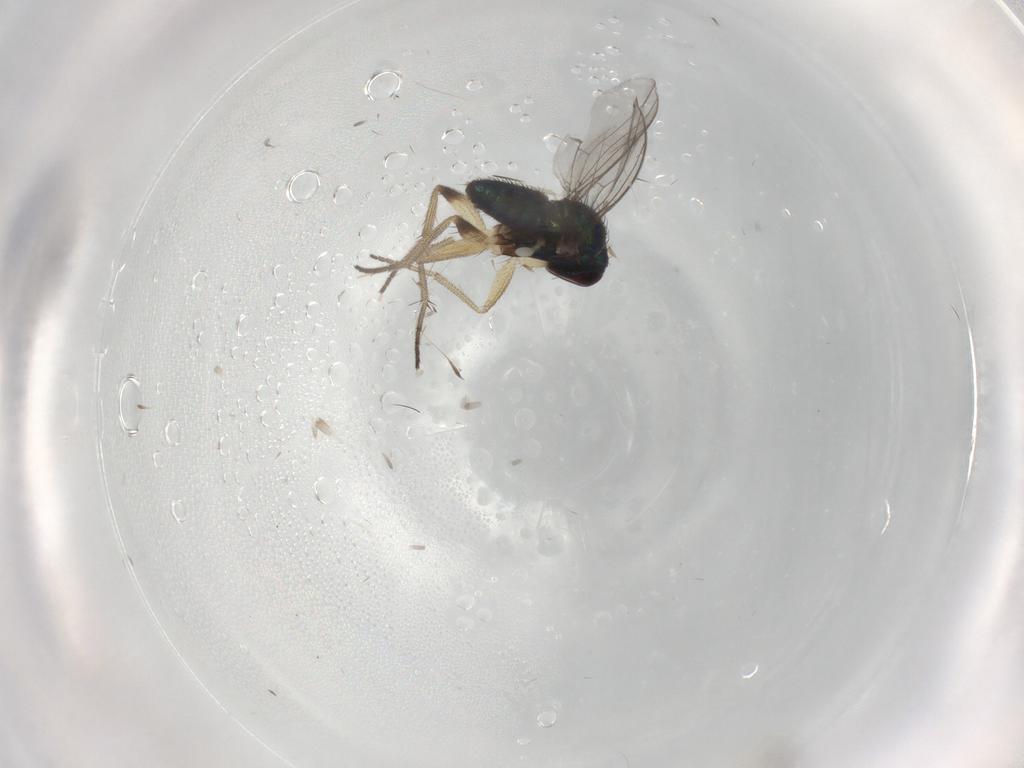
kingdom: Animalia
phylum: Arthropoda
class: Insecta
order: Diptera
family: Cecidomyiidae
